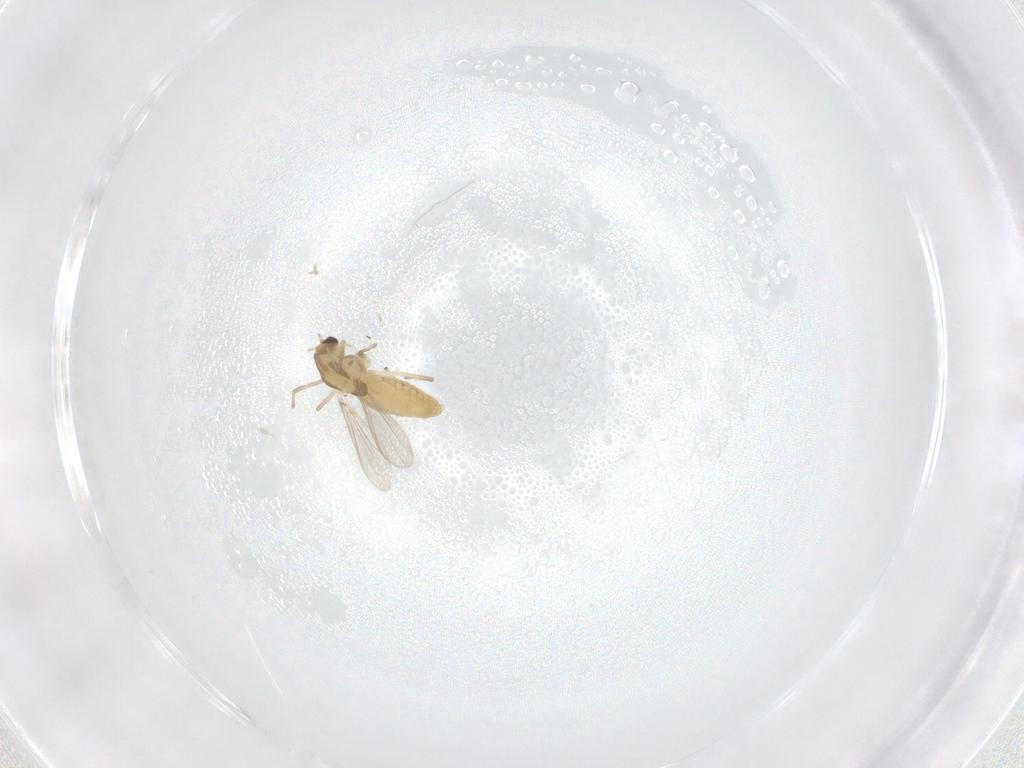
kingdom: Animalia
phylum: Arthropoda
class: Insecta
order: Diptera
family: Chironomidae
